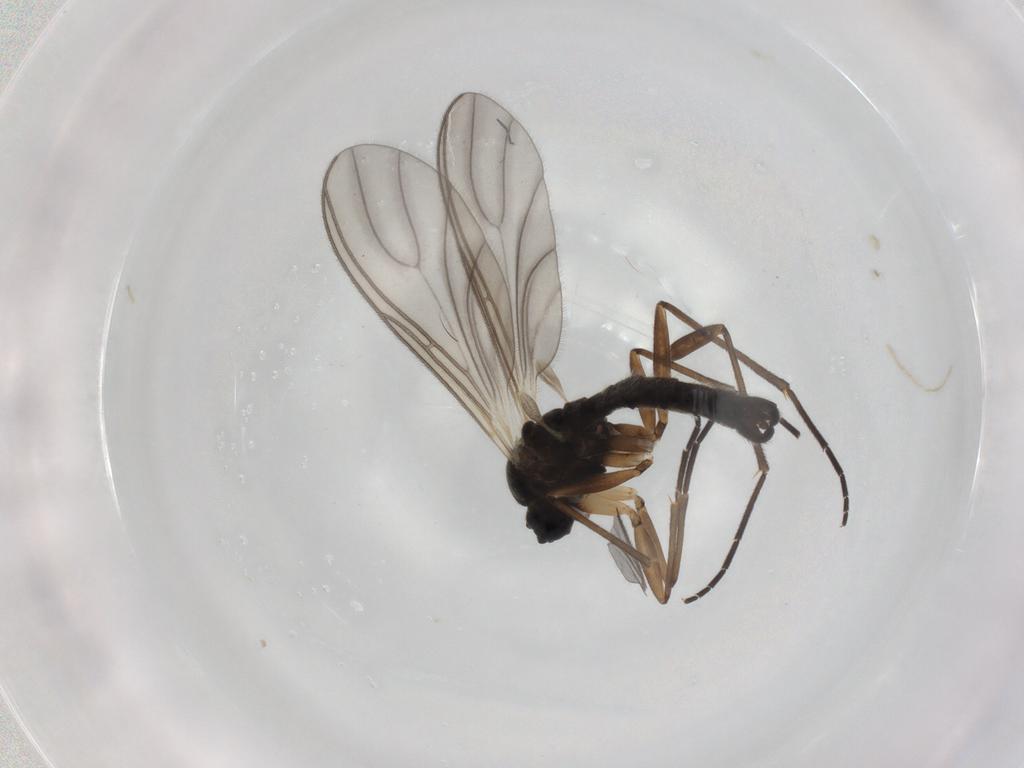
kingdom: Animalia
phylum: Arthropoda
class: Insecta
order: Diptera
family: Sciaridae
